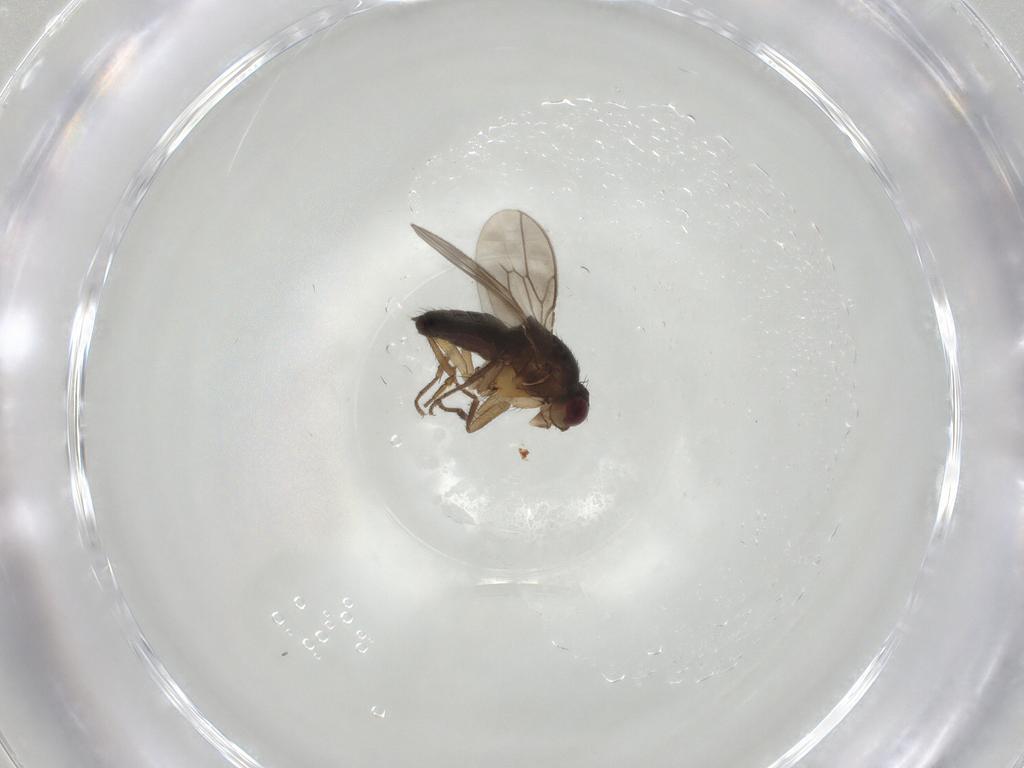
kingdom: Animalia
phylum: Arthropoda
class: Insecta
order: Diptera
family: Sphaeroceridae
